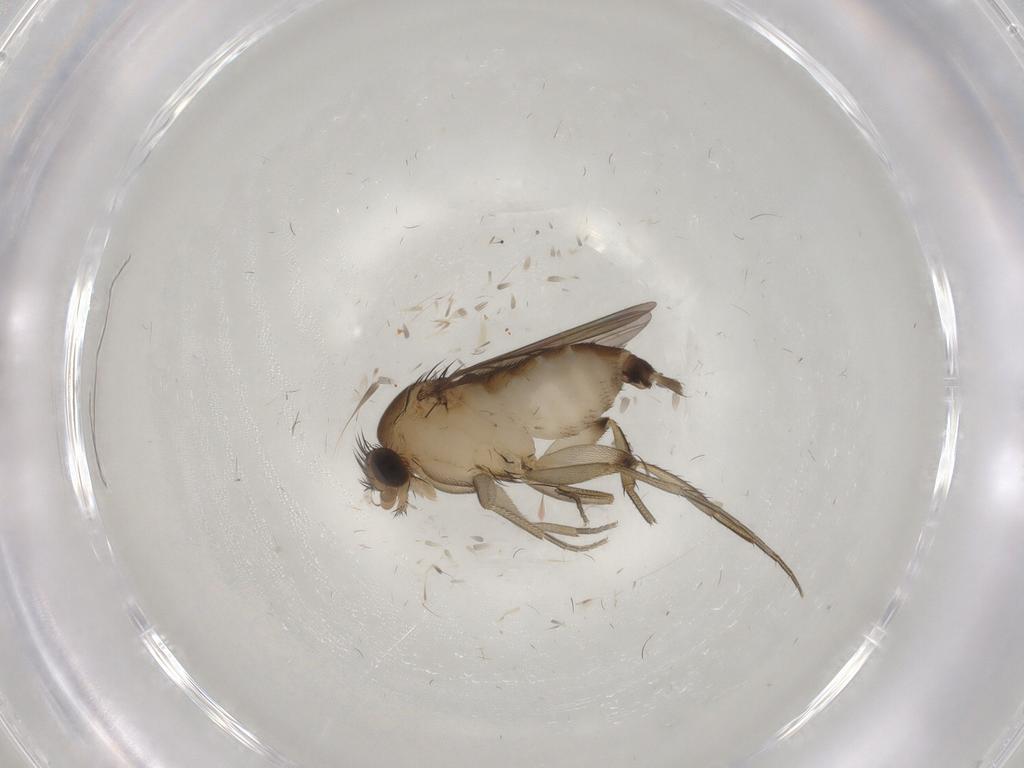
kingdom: Animalia
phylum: Arthropoda
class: Insecta
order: Diptera
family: Phoridae
